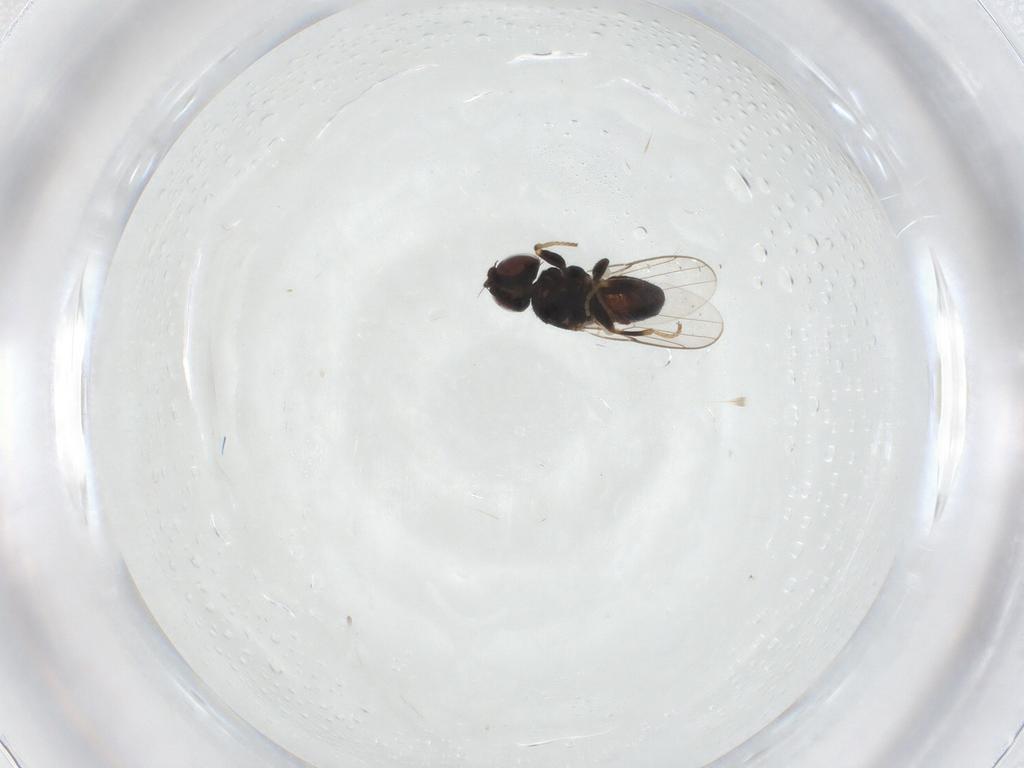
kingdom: Animalia
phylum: Arthropoda
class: Insecta
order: Diptera
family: Chloropidae
